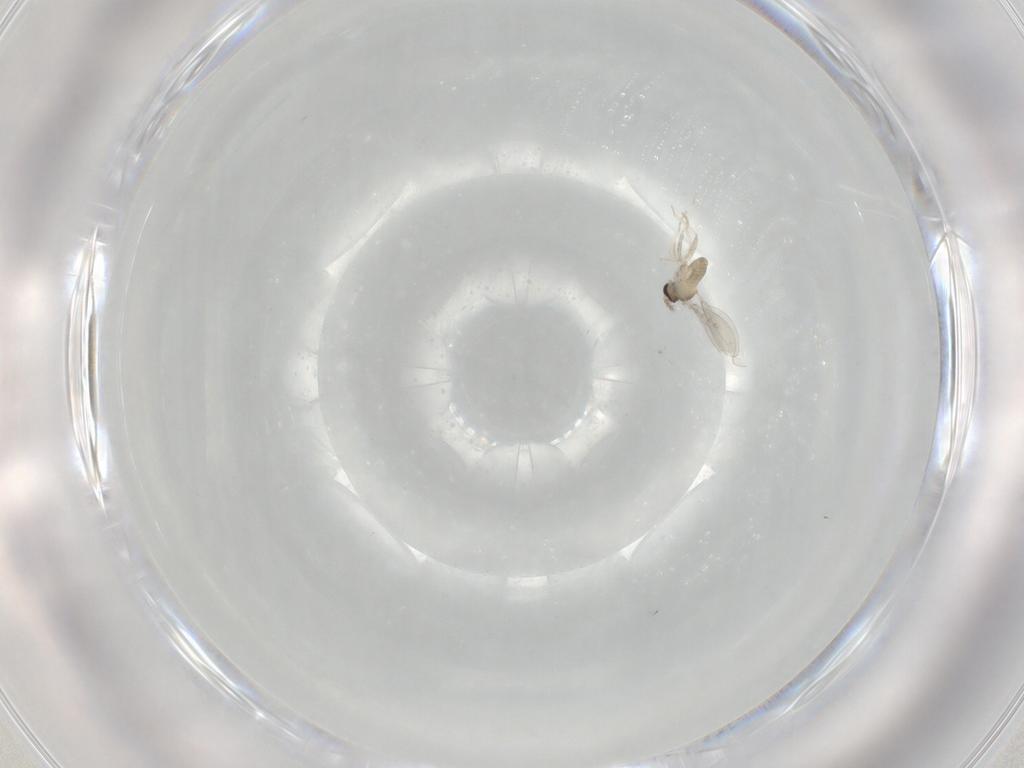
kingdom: Animalia
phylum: Arthropoda
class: Insecta
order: Diptera
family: Cecidomyiidae
